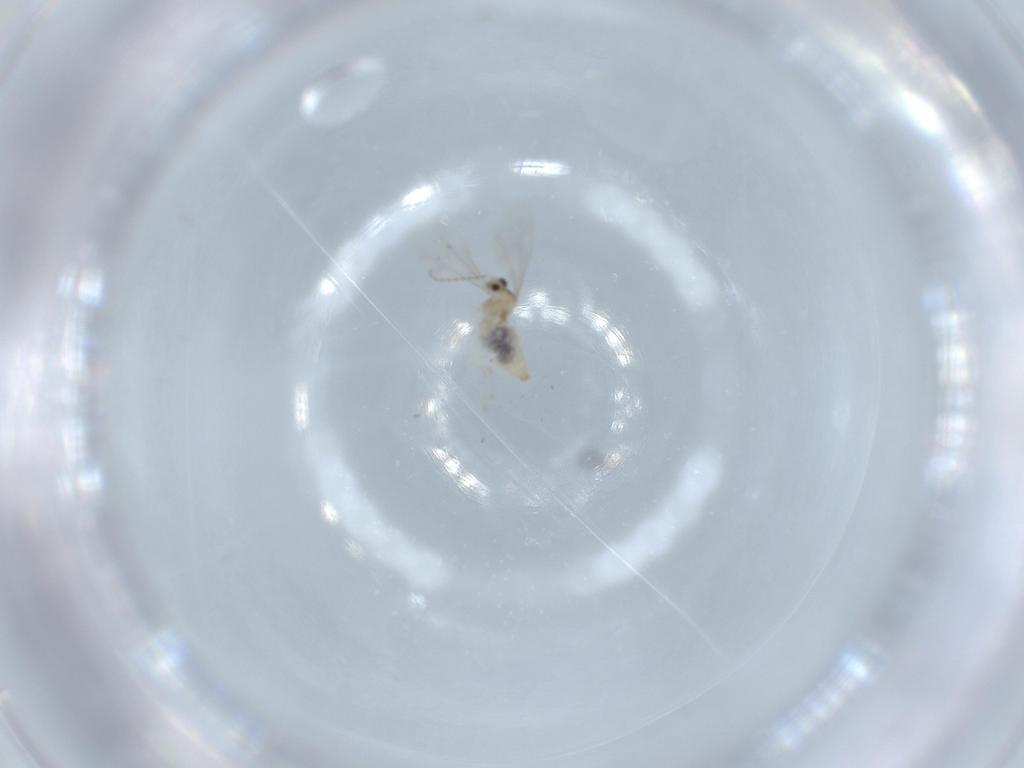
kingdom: Animalia
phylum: Arthropoda
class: Insecta
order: Diptera
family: Cecidomyiidae
